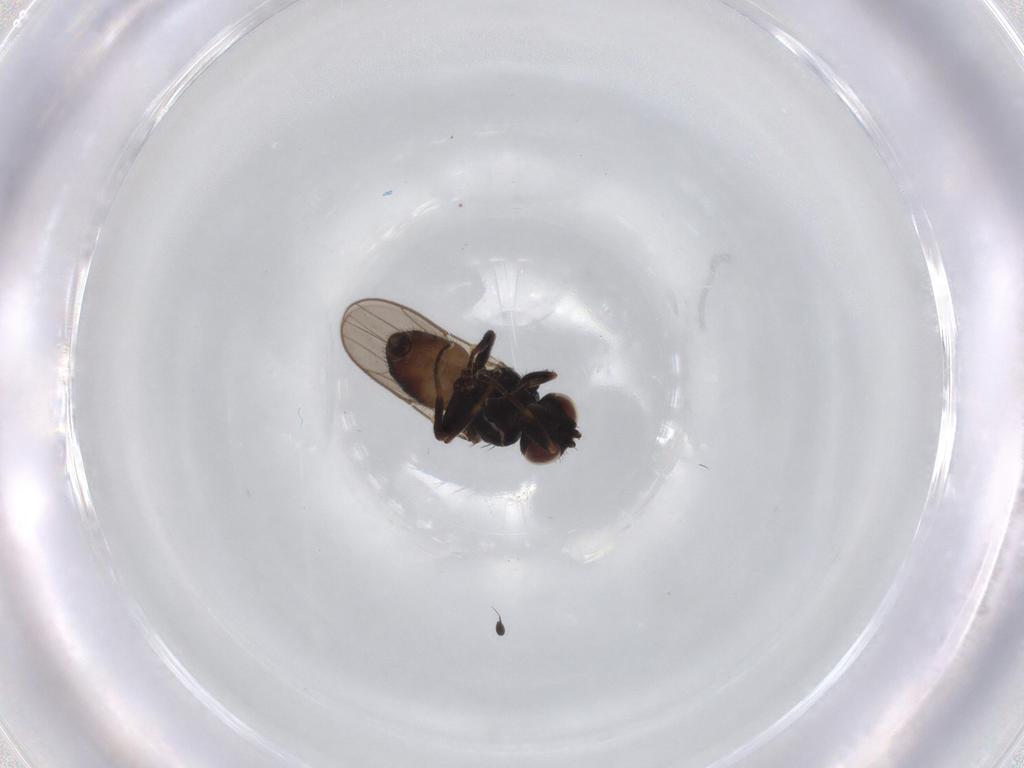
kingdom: Animalia
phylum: Arthropoda
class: Insecta
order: Diptera
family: Chloropidae
